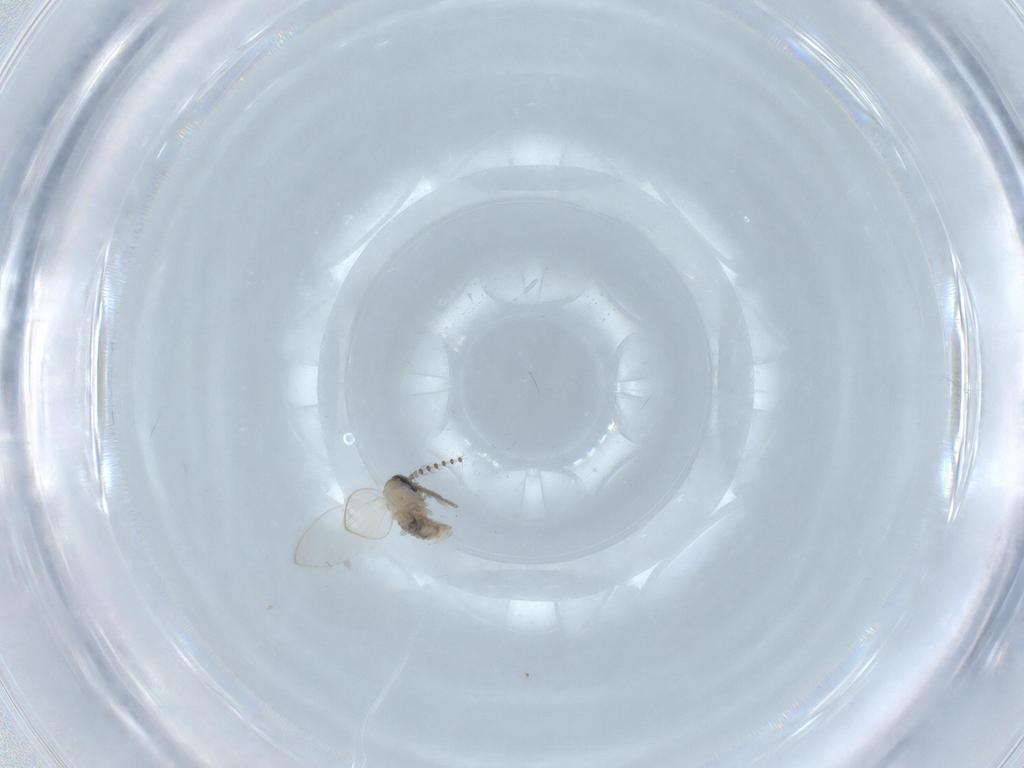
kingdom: Animalia
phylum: Arthropoda
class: Insecta
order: Diptera
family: Psychodidae
